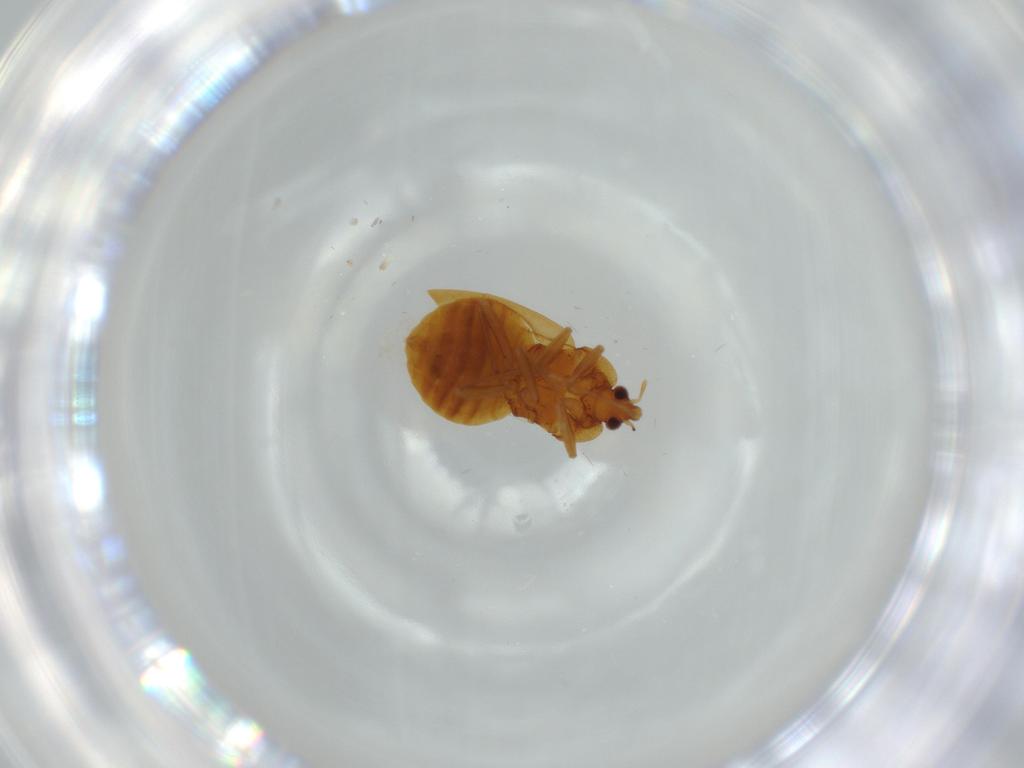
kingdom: Animalia
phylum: Arthropoda
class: Insecta
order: Hemiptera
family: Anthocoridae
